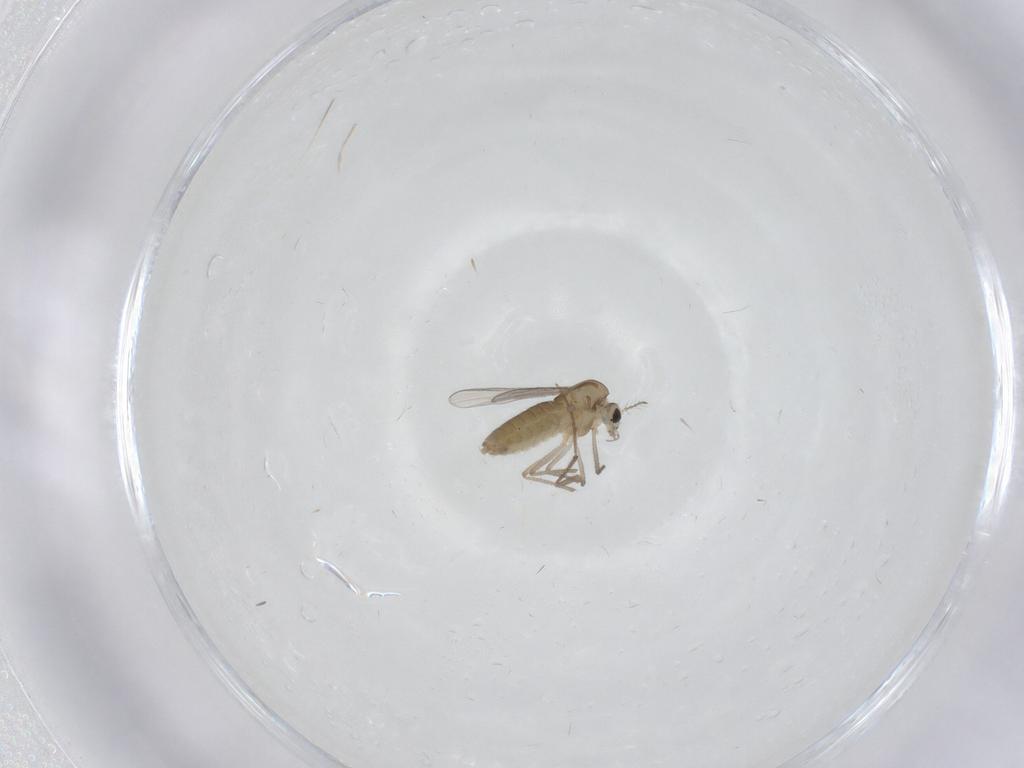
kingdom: Animalia
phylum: Arthropoda
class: Insecta
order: Diptera
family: Chironomidae
